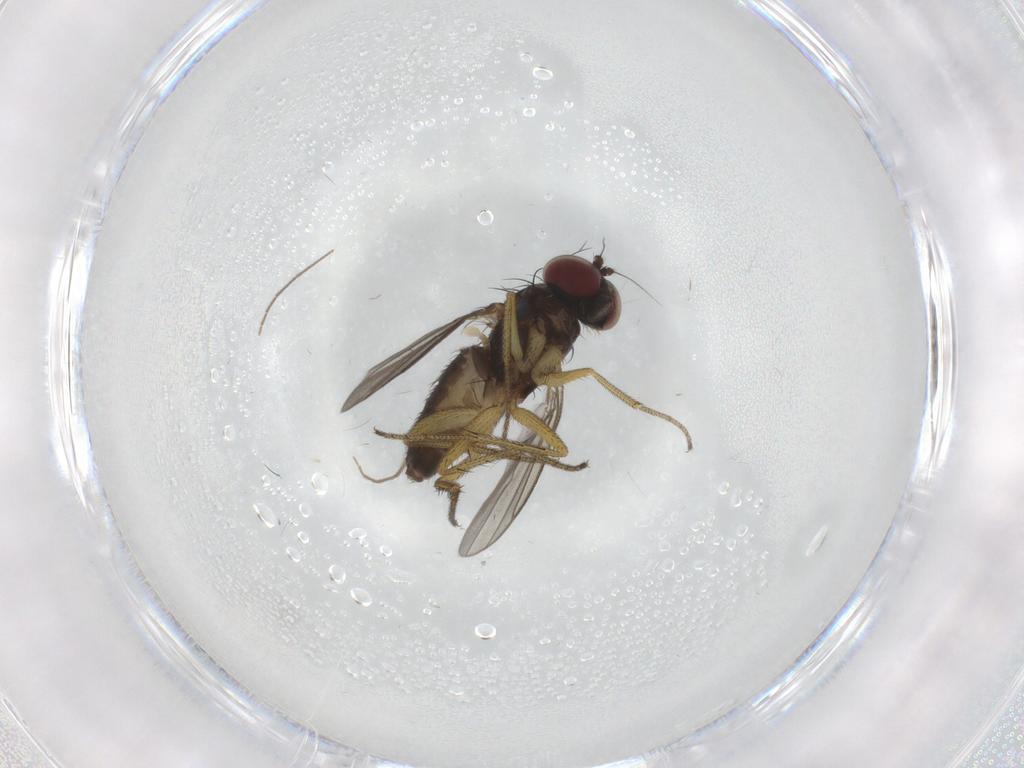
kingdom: Animalia
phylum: Arthropoda
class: Insecta
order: Diptera
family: Dolichopodidae
